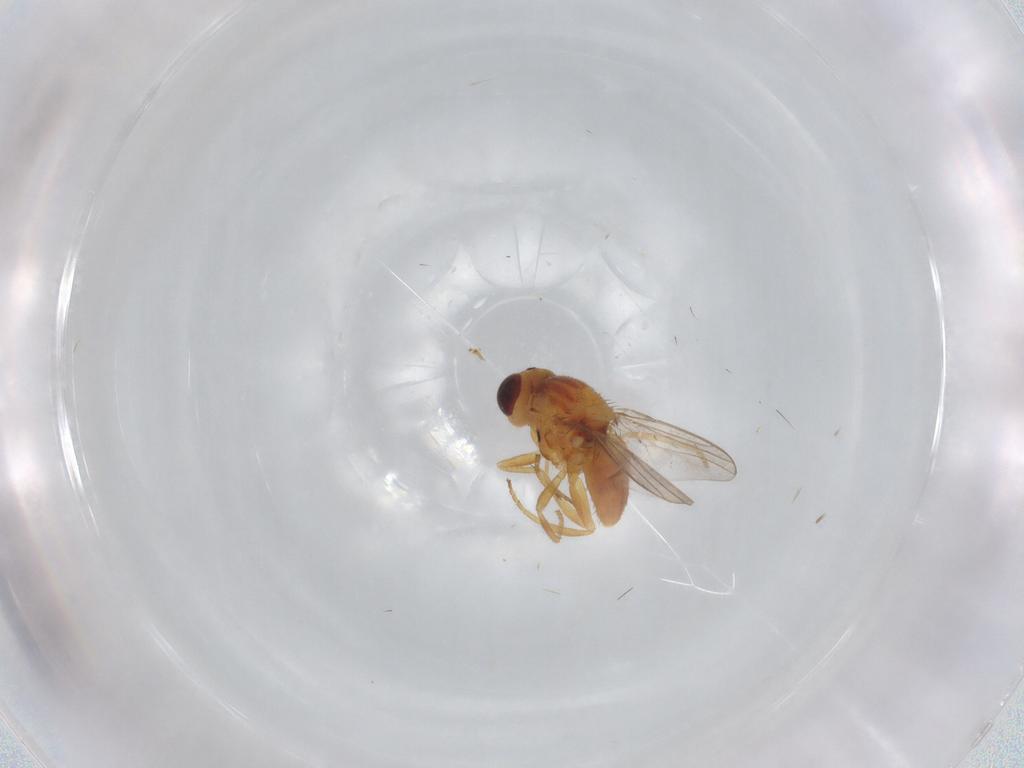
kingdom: Animalia
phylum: Arthropoda
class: Insecta
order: Diptera
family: Chloropidae
